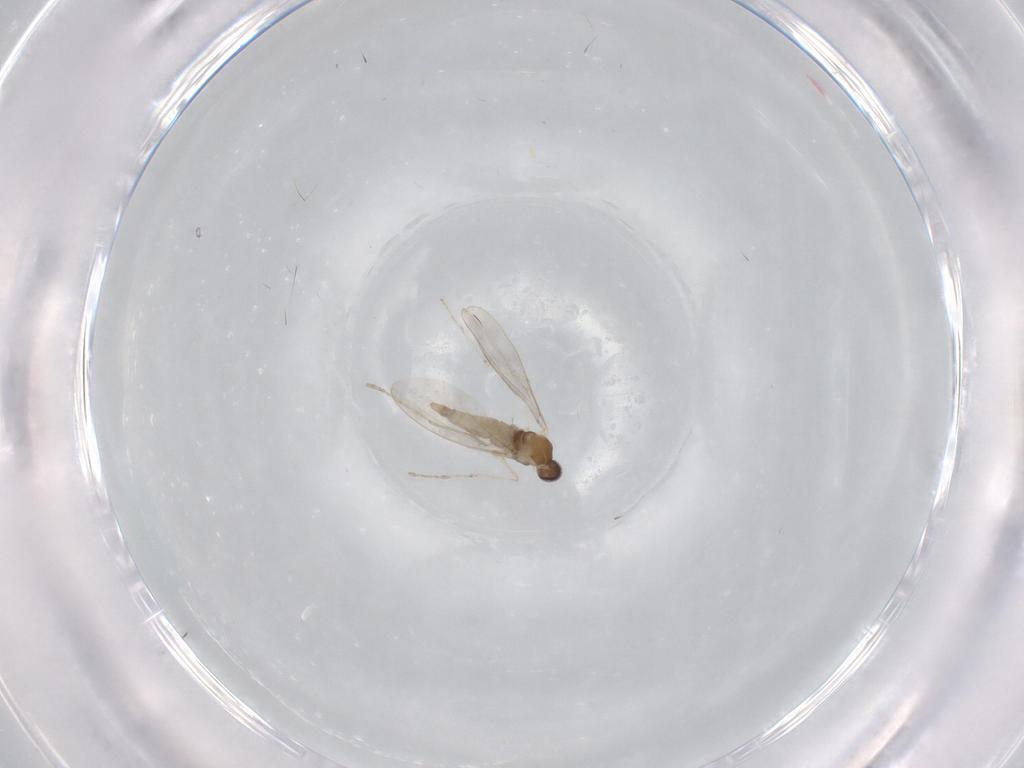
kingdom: Animalia
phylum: Arthropoda
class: Insecta
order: Diptera
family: Cecidomyiidae
